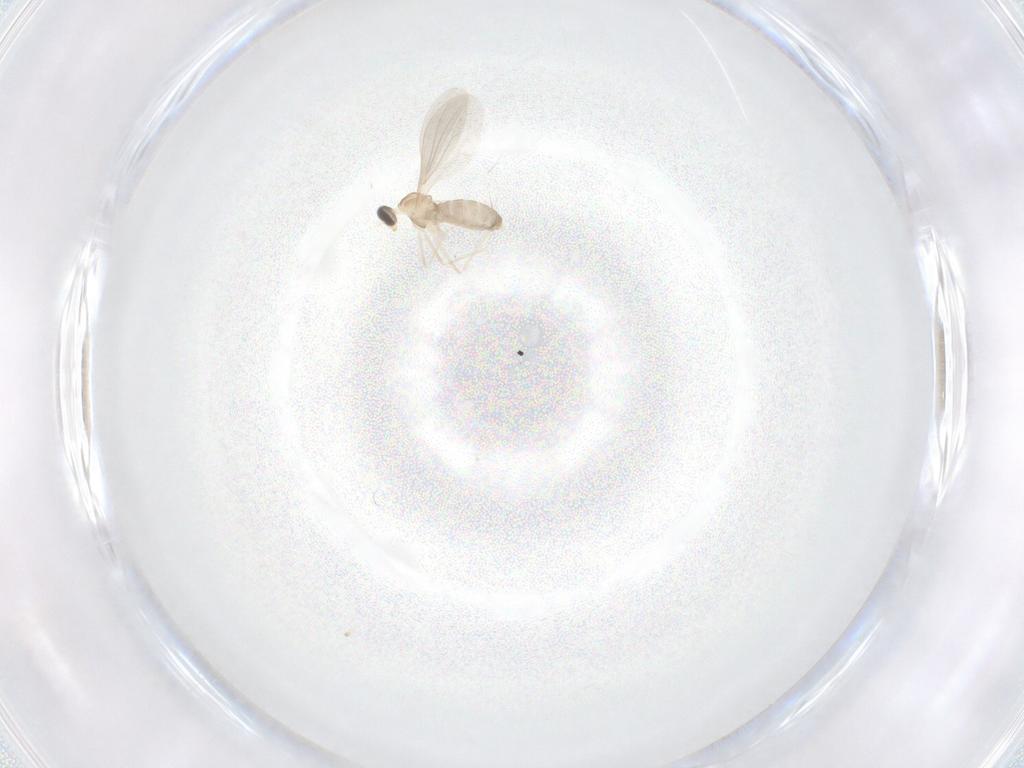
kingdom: Animalia
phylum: Arthropoda
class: Insecta
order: Diptera
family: Cecidomyiidae
